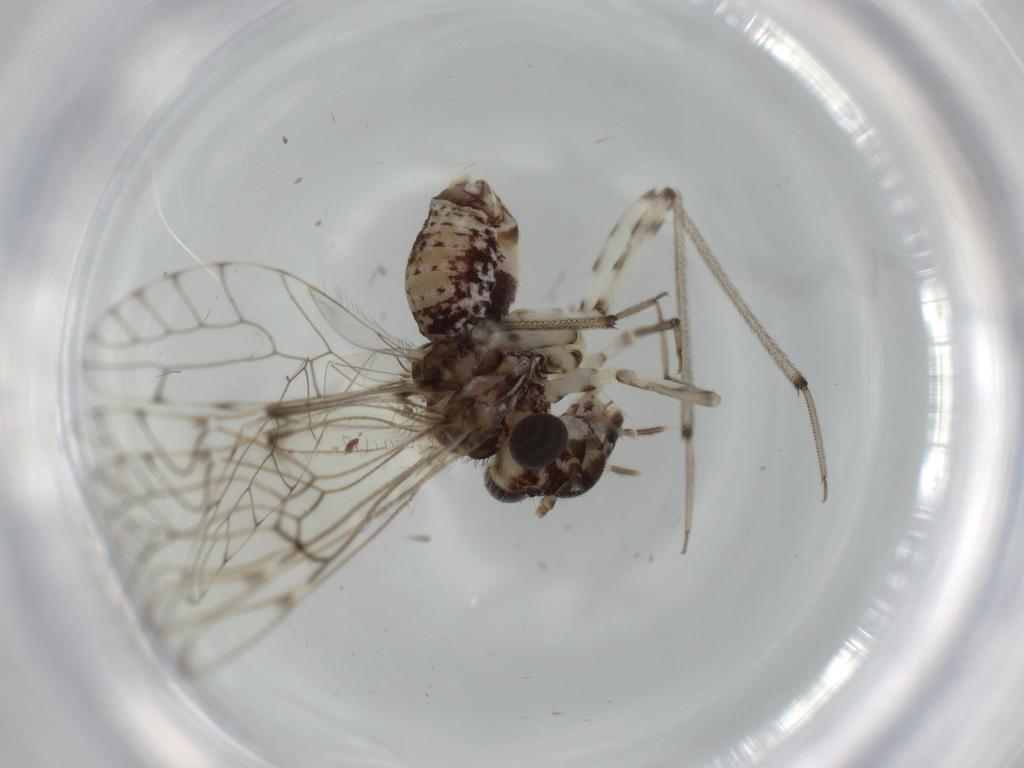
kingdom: Animalia
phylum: Arthropoda
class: Insecta
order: Psocodea
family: Ptiloneuridae
